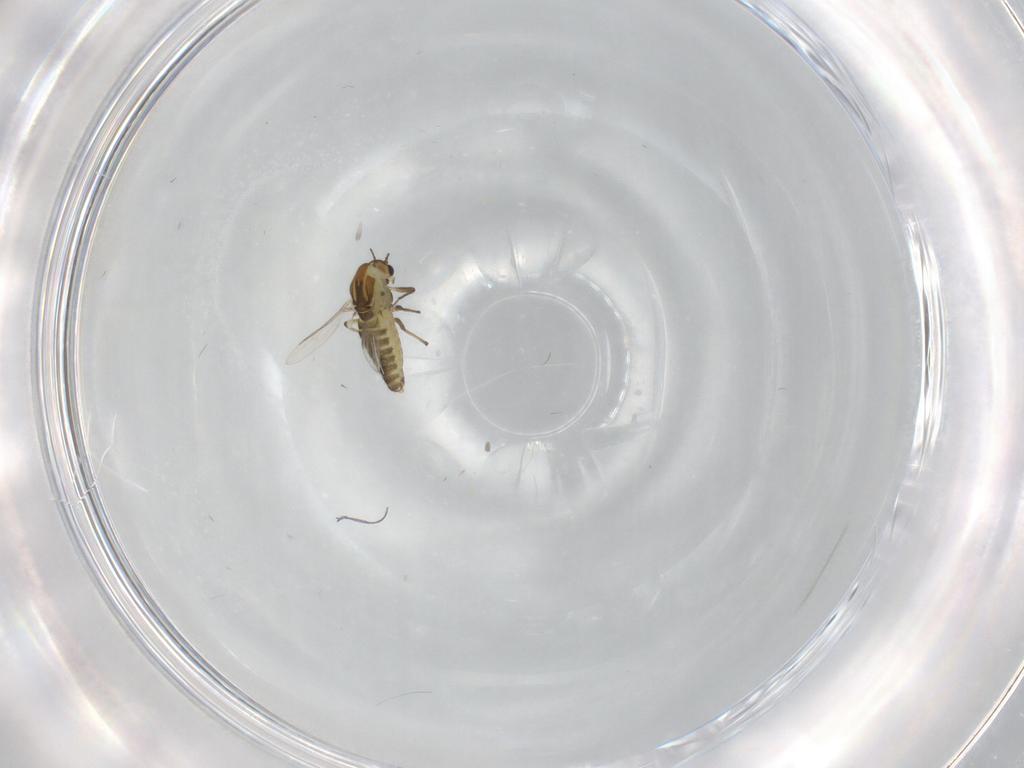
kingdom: Animalia
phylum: Arthropoda
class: Insecta
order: Diptera
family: Chironomidae
